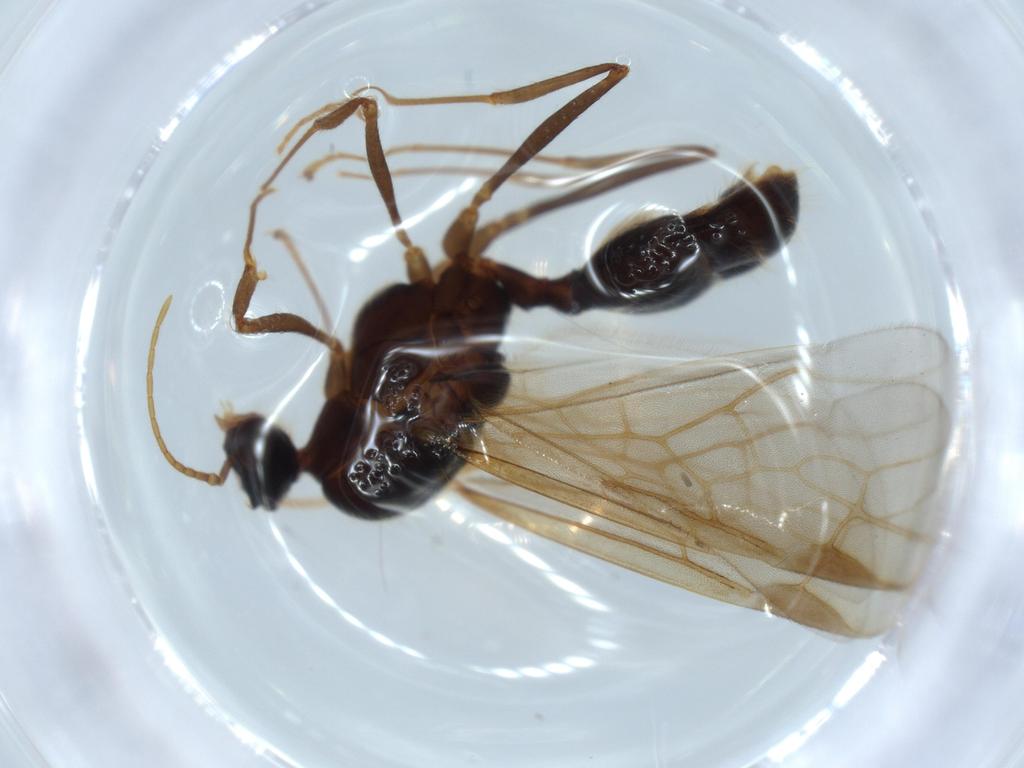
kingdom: Animalia
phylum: Arthropoda
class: Insecta
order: Hymenoptera
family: Formicidae
